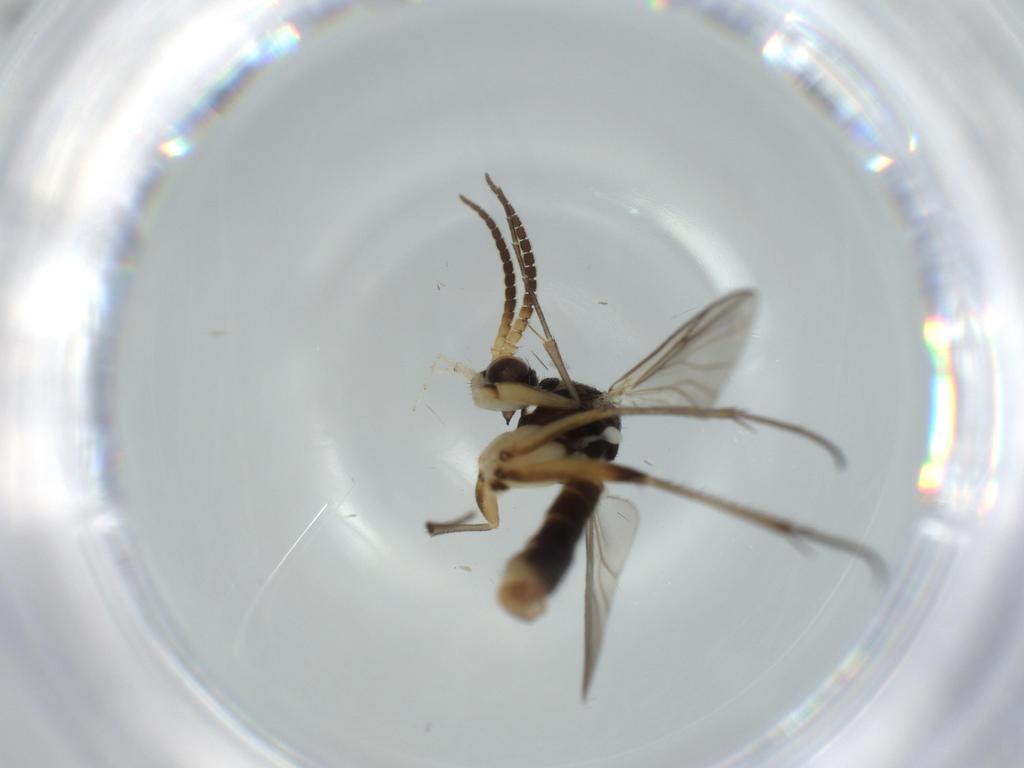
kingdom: Animalia
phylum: Arthropoda
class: Insecta
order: Diptera
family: Mycetophilidae
